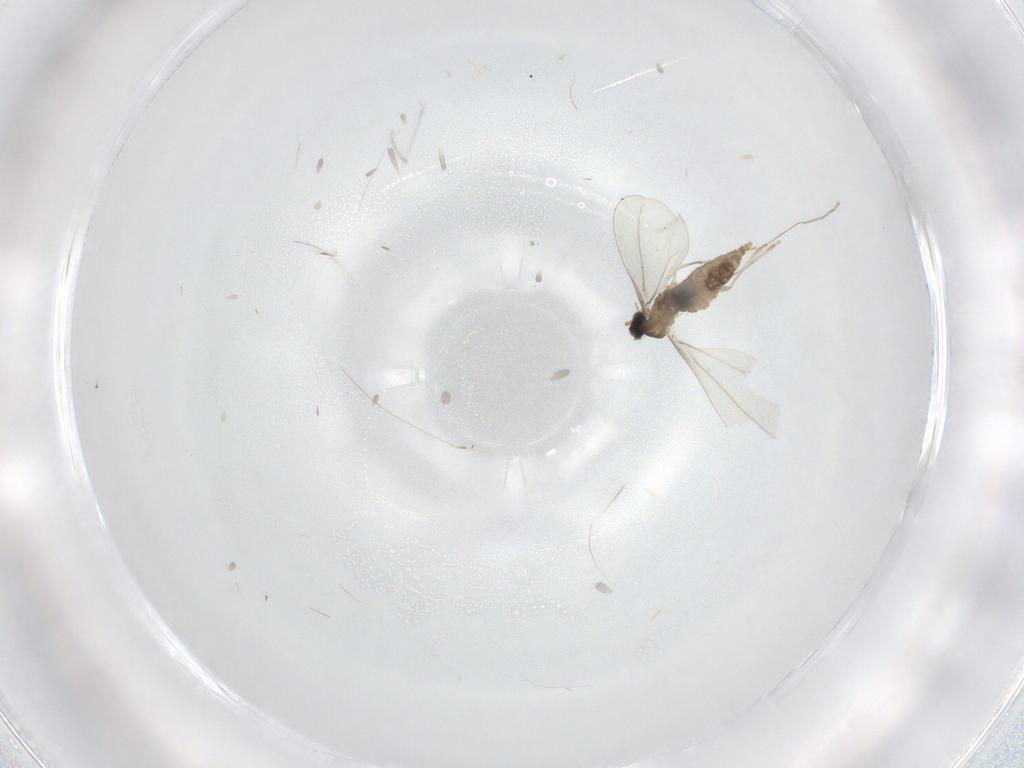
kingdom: Animalia
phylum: Arthropoda
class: Insecta
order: Diptera
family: Cecidomyiidae
